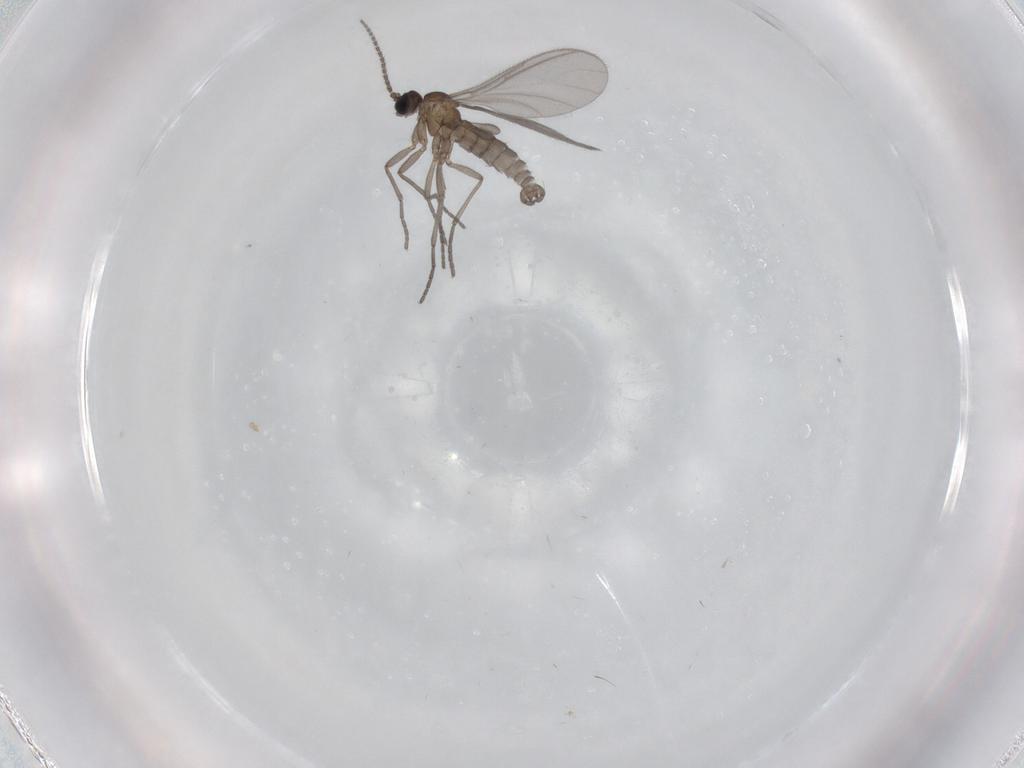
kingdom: Animalia
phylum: Arthropoda
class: Insecta
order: Diptera
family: Sciaridae
